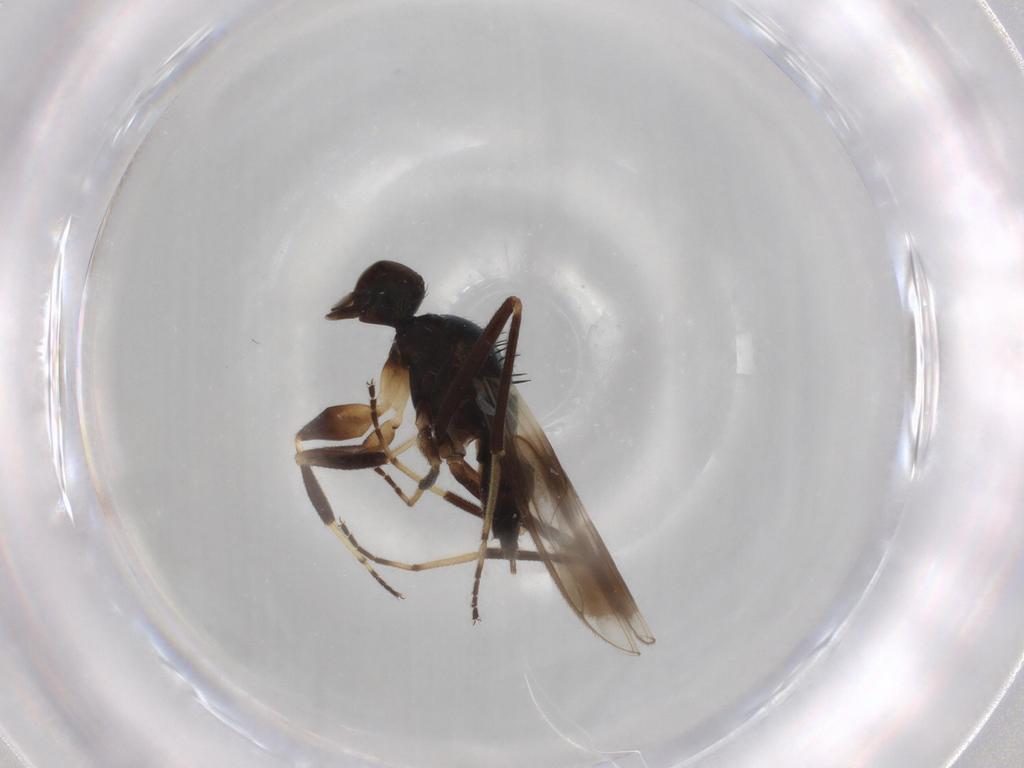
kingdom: Animalia
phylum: Arthropoda
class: Insecta
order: Diptera
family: Hybotidae
